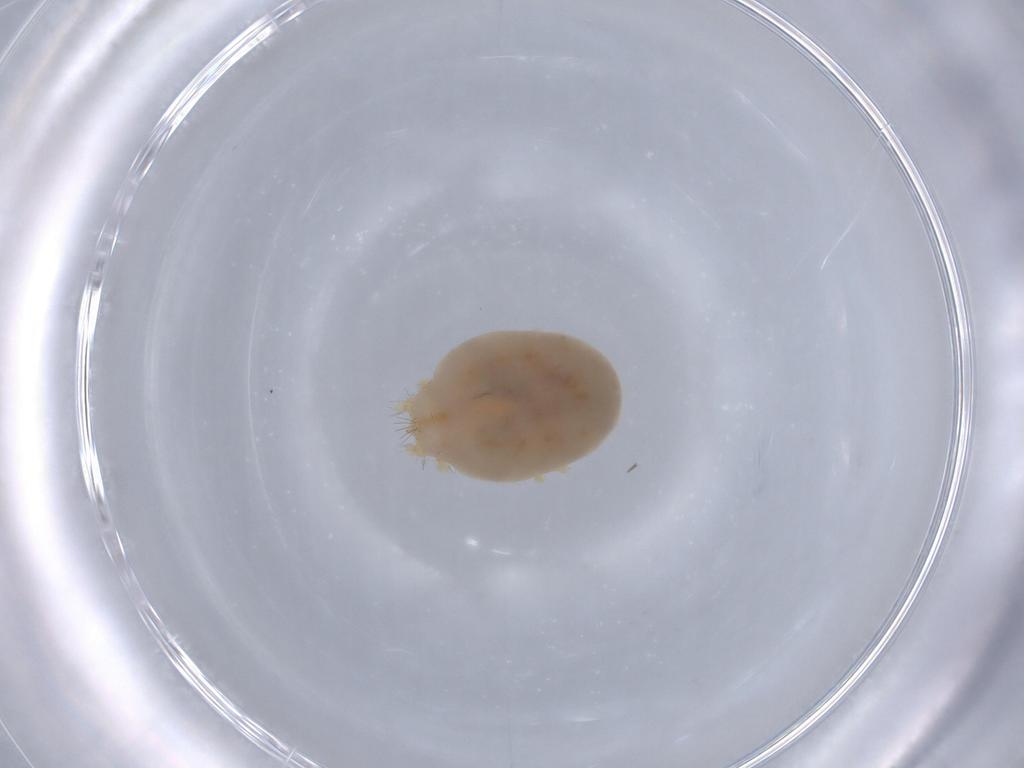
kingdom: Animalia
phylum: Arthropoda
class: Arachnida
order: Trombidiformes
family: Erythraeidae
